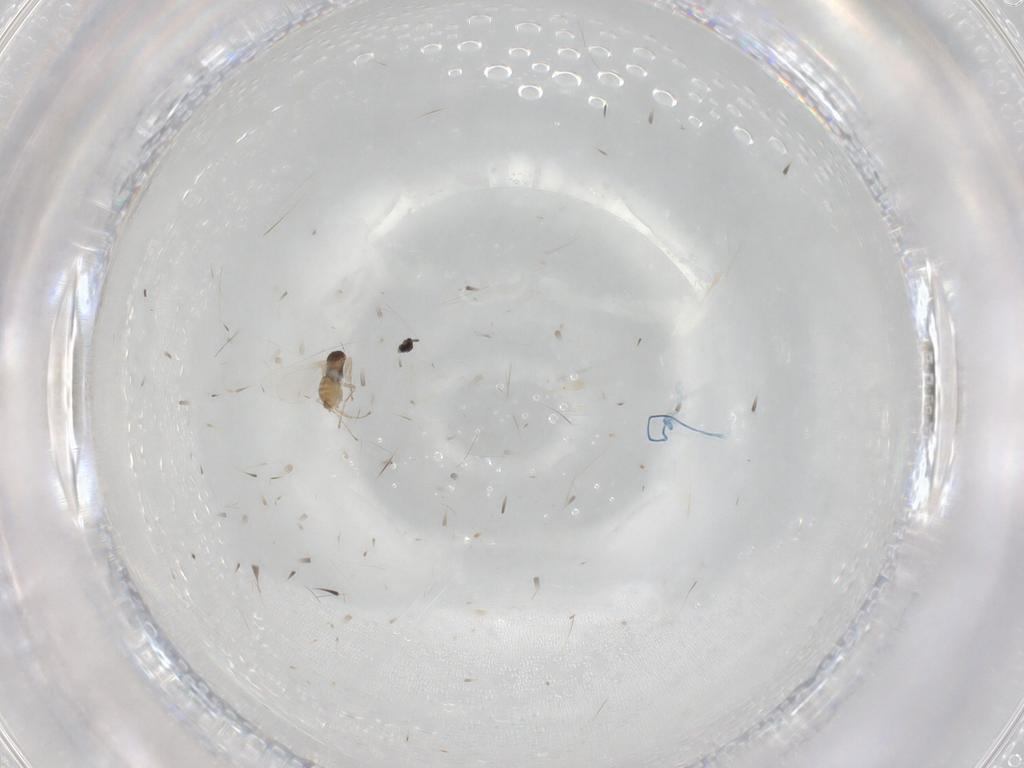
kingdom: Animalia
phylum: Arthropoda
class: Insecta
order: Diptera
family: Cecidomyiidae
